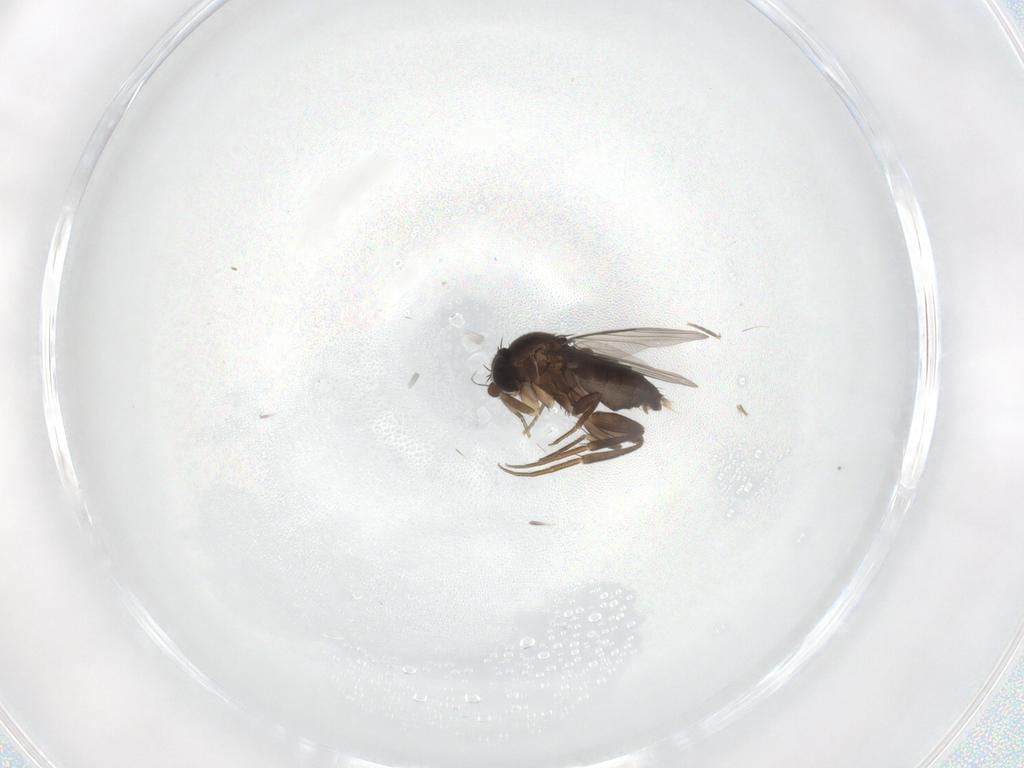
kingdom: Animalia
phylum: Arthropoda
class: Insecta
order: Diptera
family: Phoridae
